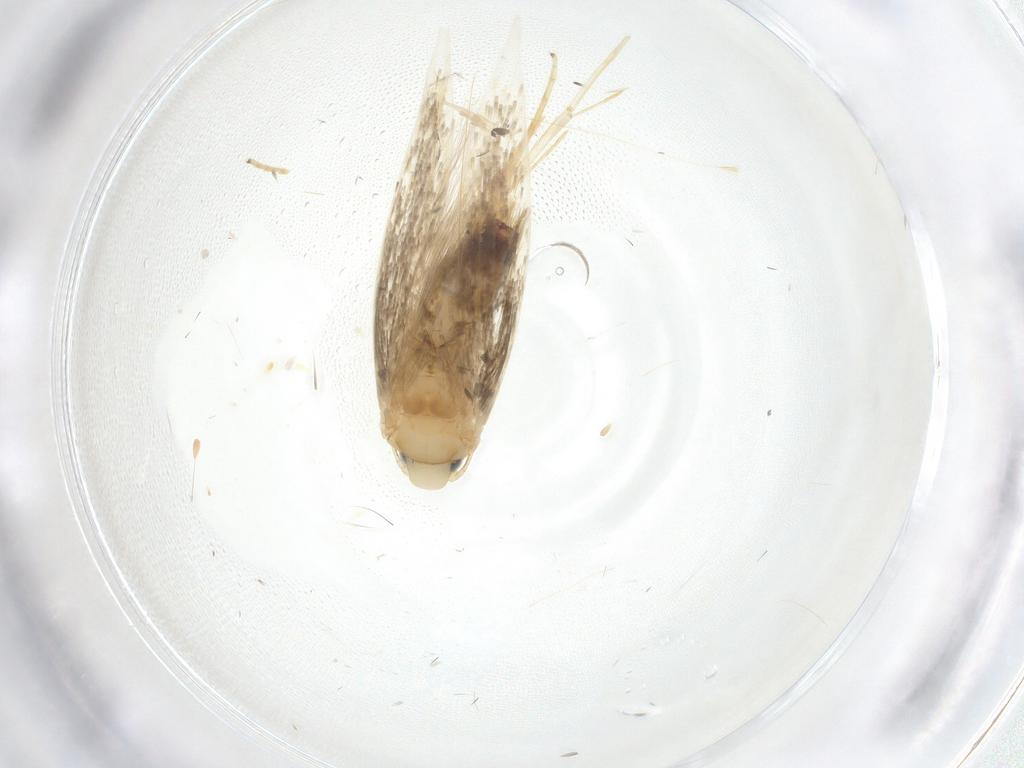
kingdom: Animalia
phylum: Arthropoda
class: Insecta
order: Lepidoptera
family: Tischeriidae
